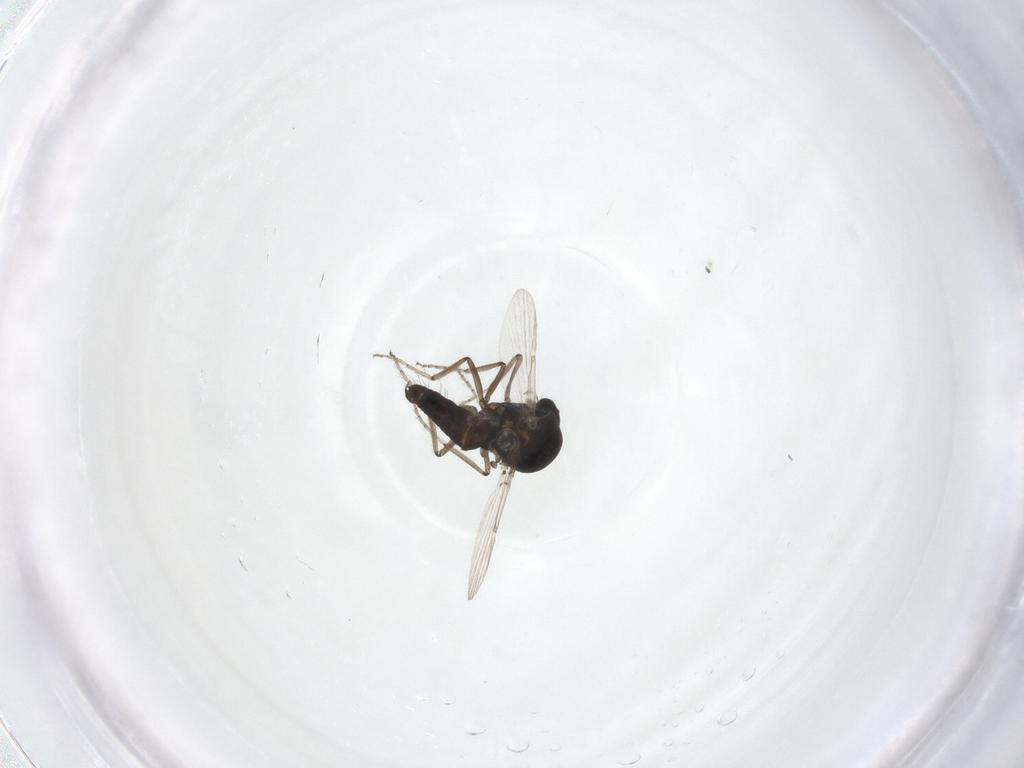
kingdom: Animalia
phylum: Arthropoda
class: Insecta
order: Diptera
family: Ceratopogonidae
